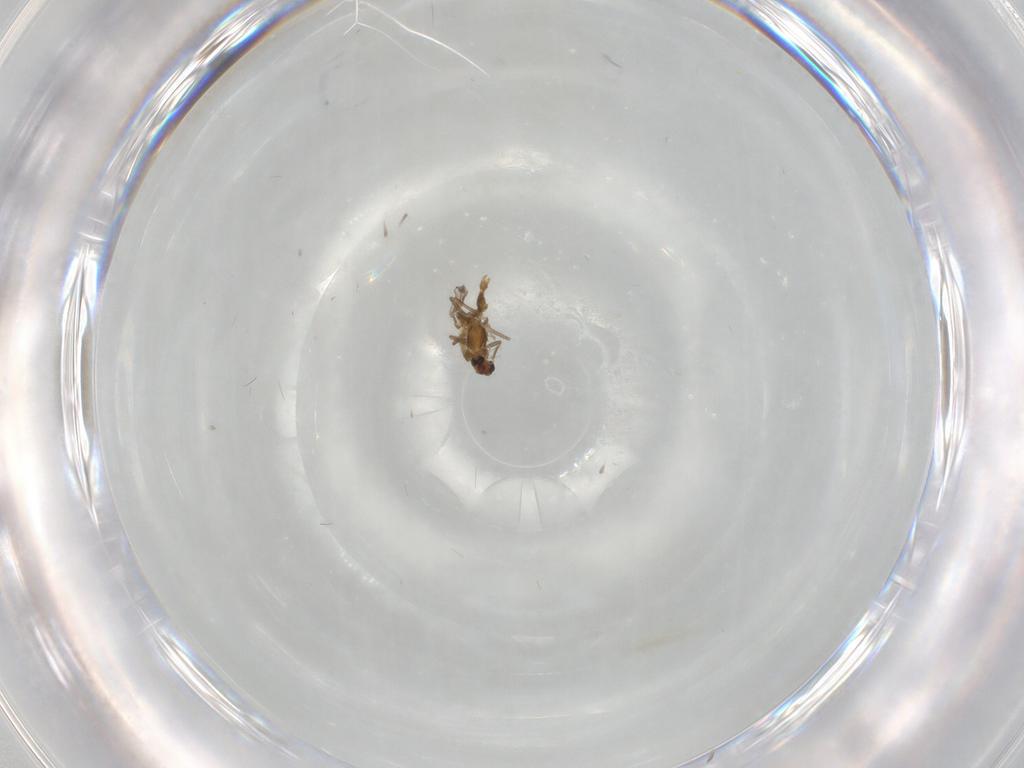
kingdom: Animalia
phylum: Arthropoda
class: Insecta
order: Diptera
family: Chironomidae
